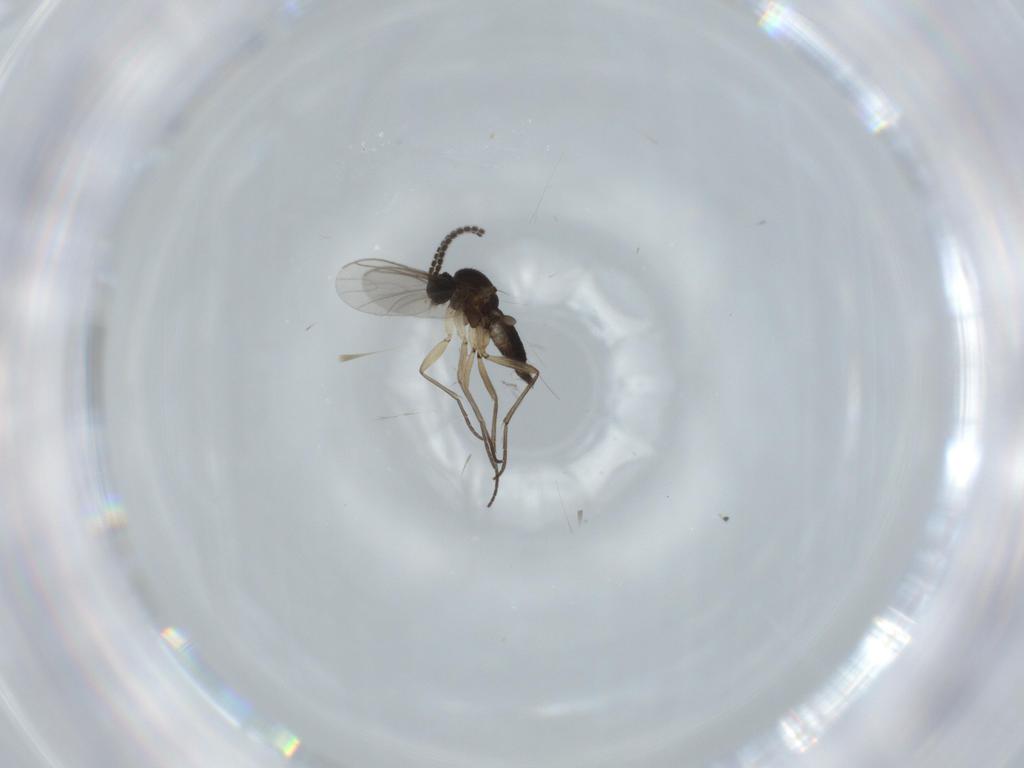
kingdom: Animalia
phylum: Arthropoda
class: Insecta
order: Diptera
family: Sciaridae
